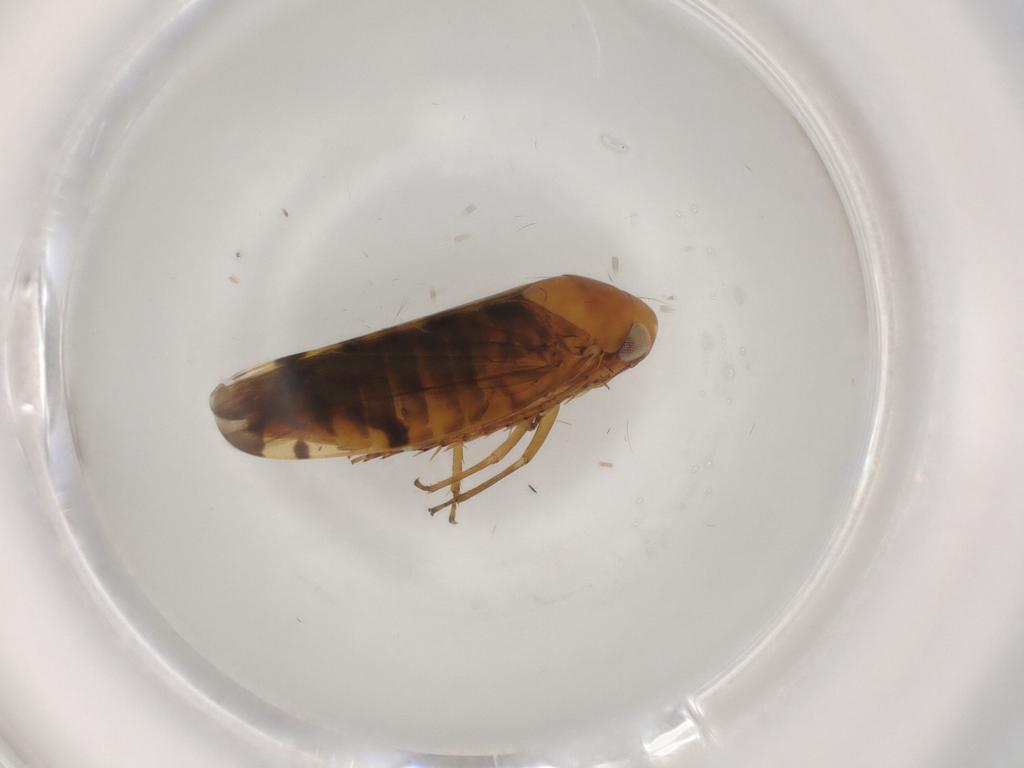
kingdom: Animalia
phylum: Arthropoda
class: Insecta
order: Hemiptera
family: Cicadellidae
